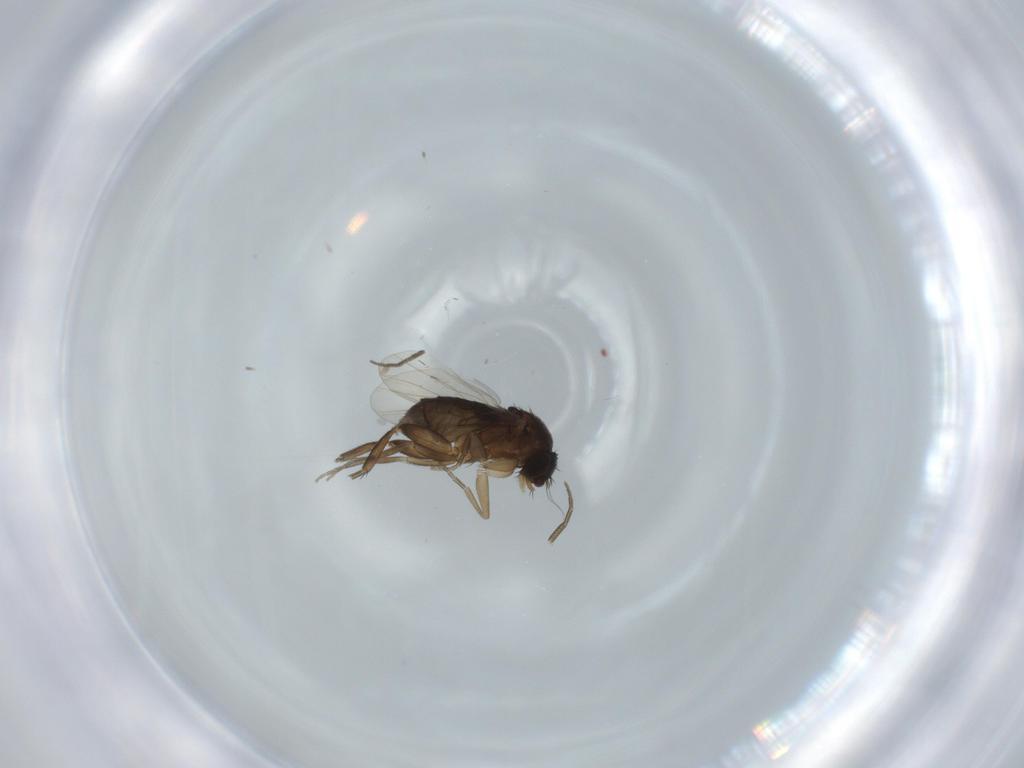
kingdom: Animalia
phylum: Arthropoda
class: Insecta
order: Diptera
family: Phoridae
